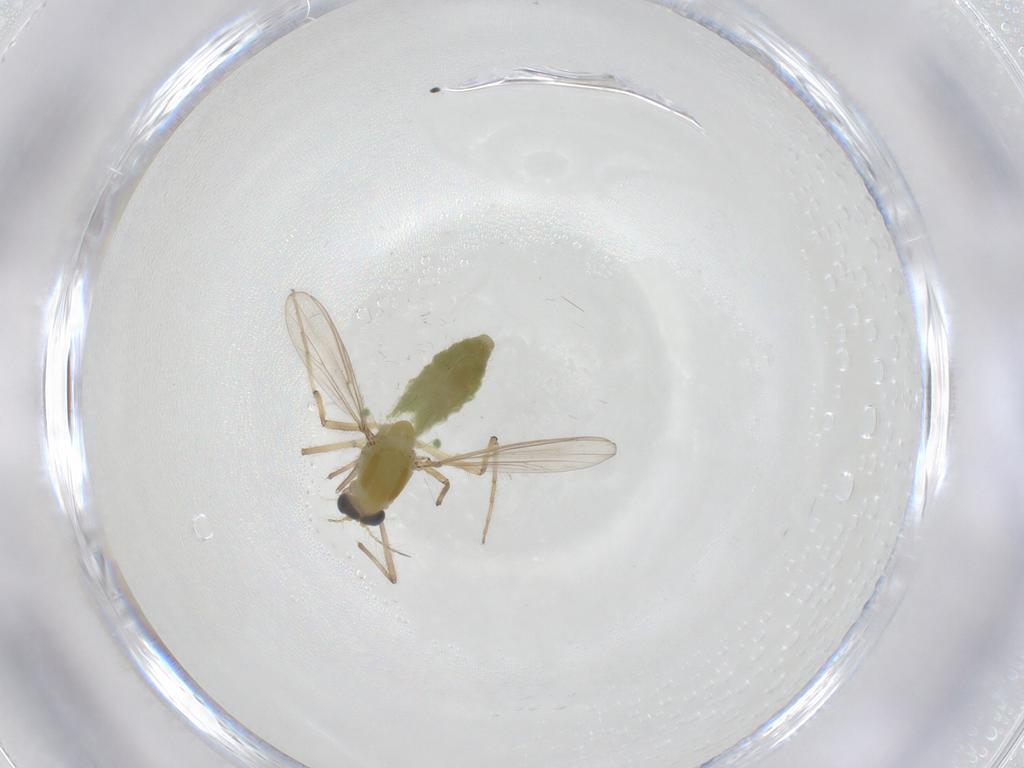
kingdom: Animalia
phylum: Arthropoda
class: Insecta
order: Diptera
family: Chironomidae
